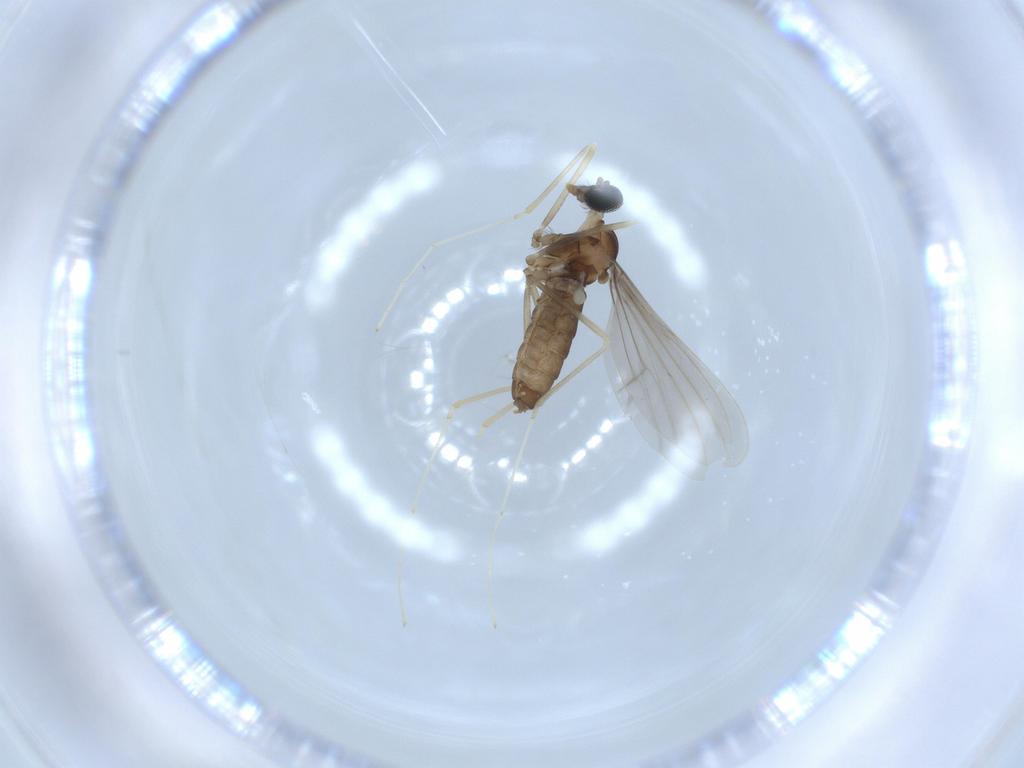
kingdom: Animalia
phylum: Arthropoda
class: Insecta
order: Diptera
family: Cecidomyiidae
